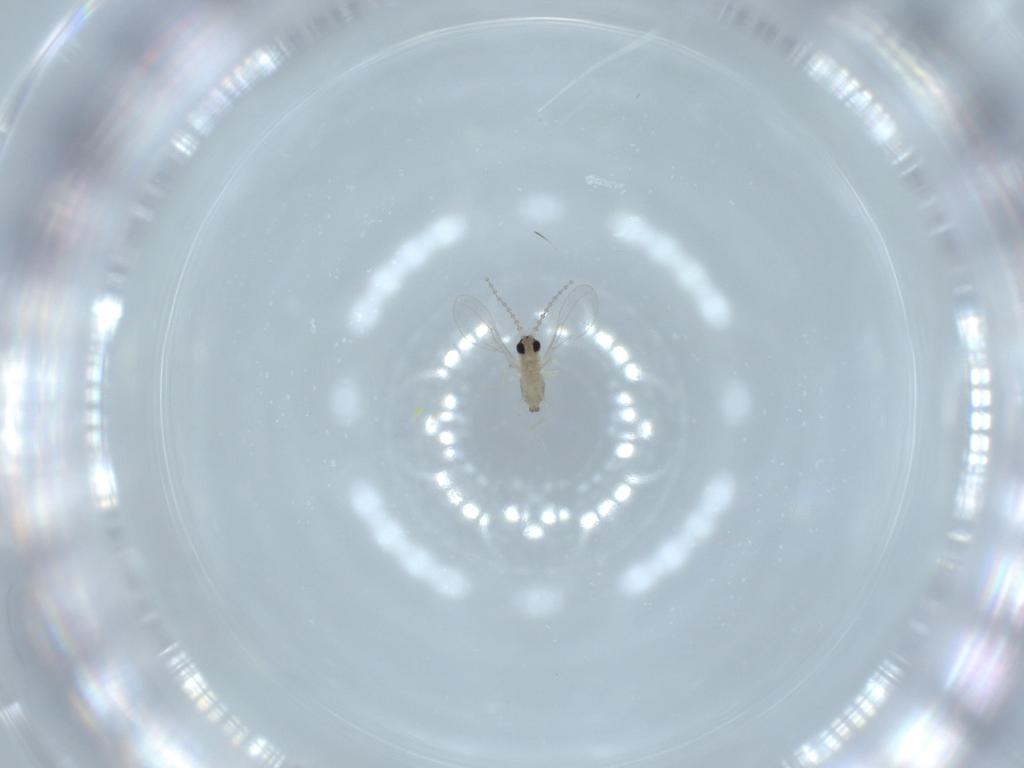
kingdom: Animalia
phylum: Arthropoda
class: Insecta
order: Diptera
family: Cecidomyiidae
